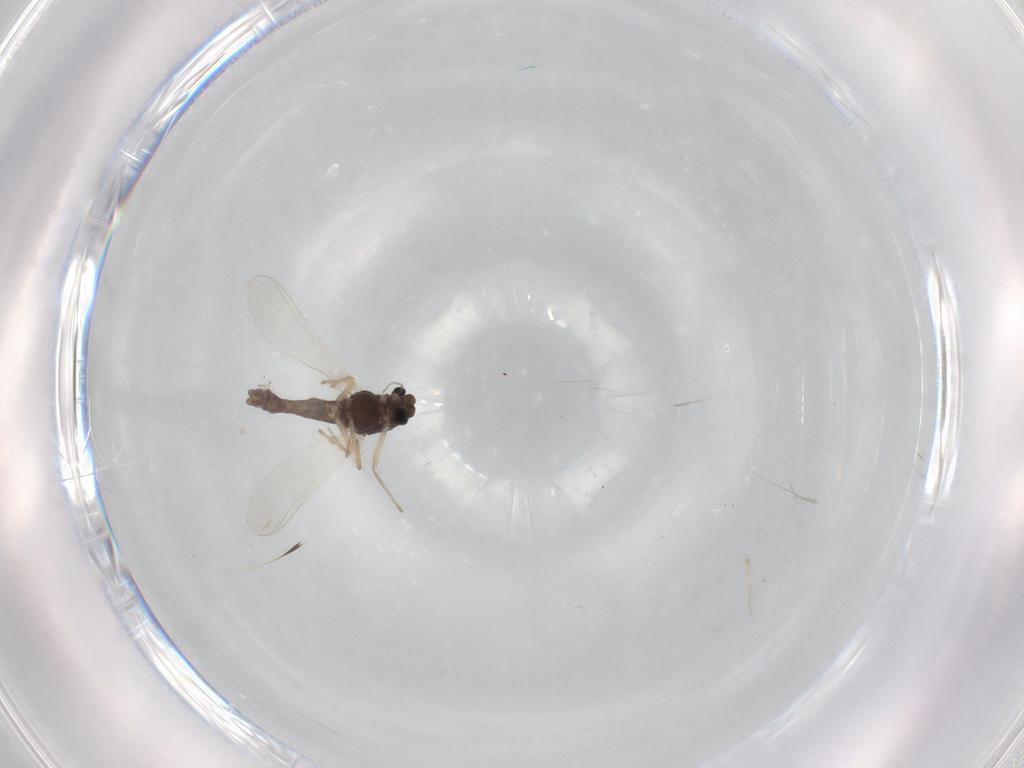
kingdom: Animalia
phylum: Arthropoda
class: Insecta
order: Diptera
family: Chironomidae
